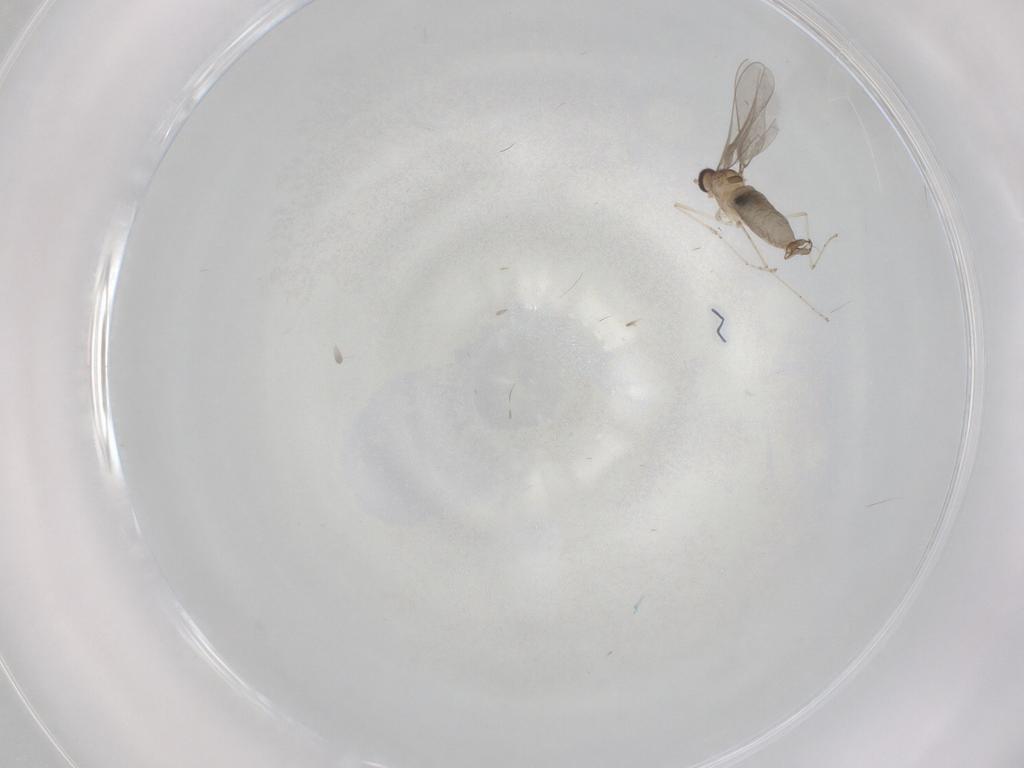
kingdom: Animalia
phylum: Arthropoda
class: Insecta
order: Diptera
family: Cecidomyiidae
